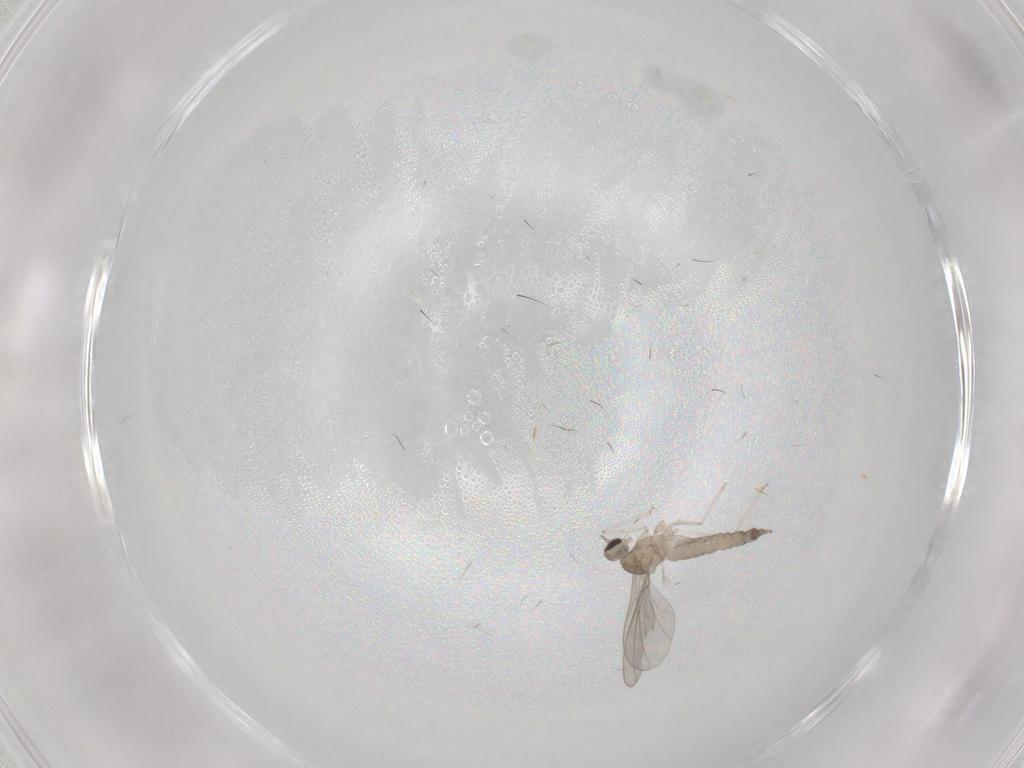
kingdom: Animalia
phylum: Arthropoda
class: Insecta
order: Diptera
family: Cecidomyiidae
